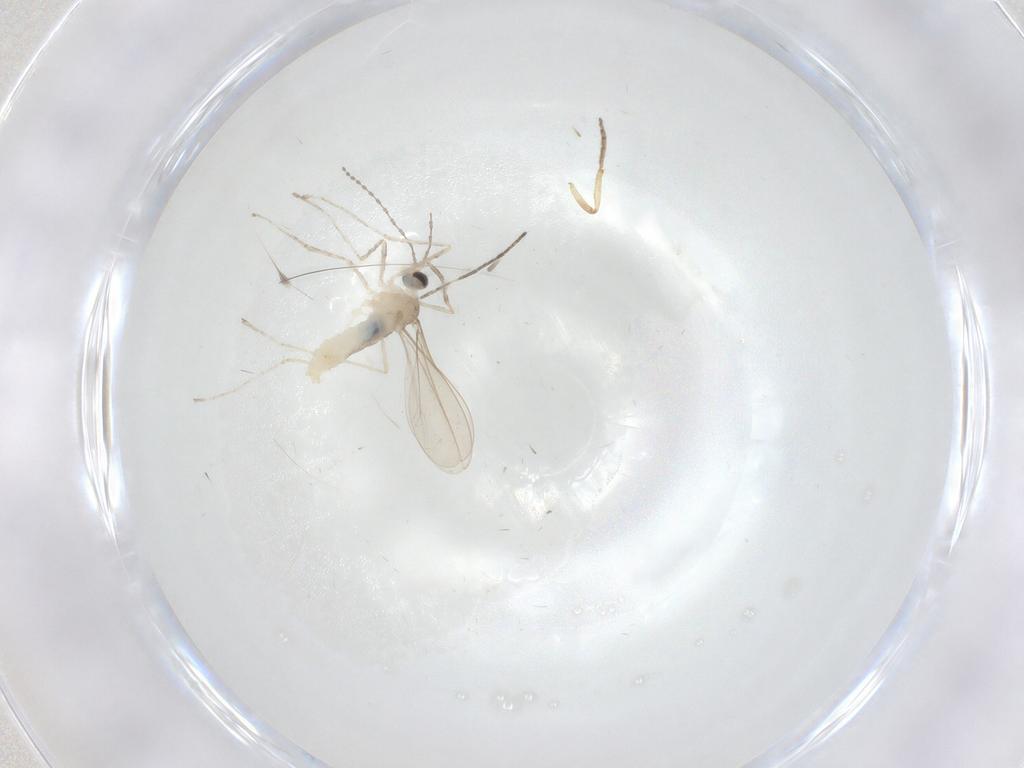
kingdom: Animalia
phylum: Arthropoda
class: Insecta
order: Diptera
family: Cecidomyiidae
